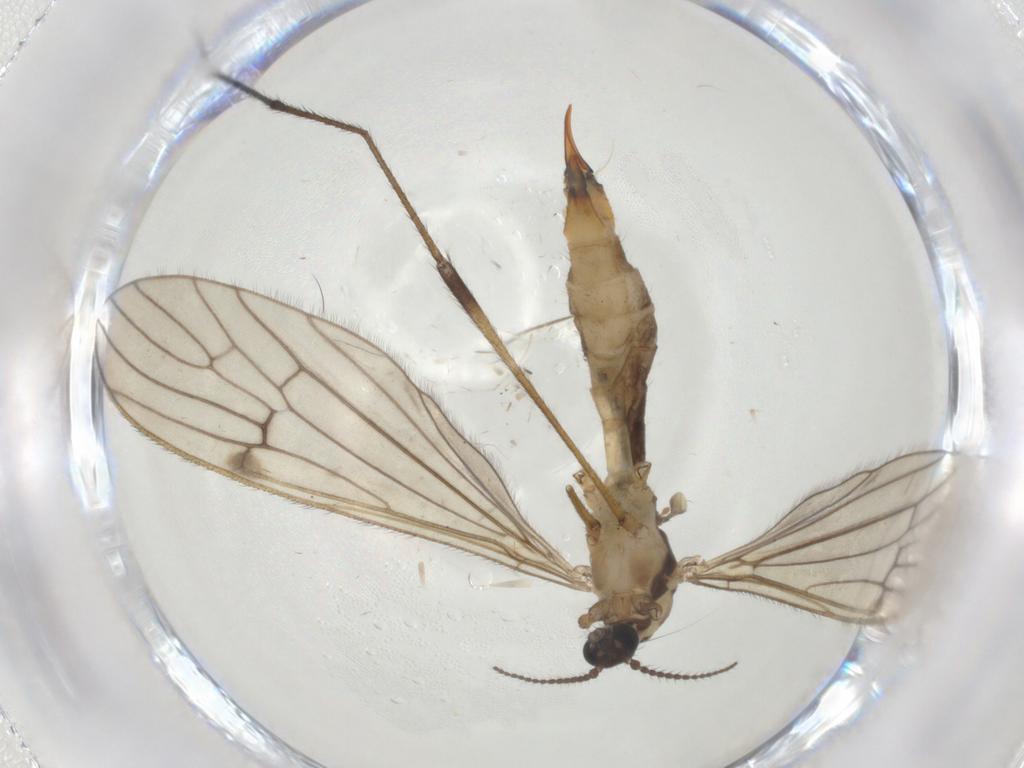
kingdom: Animalia
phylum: Arthropoda
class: Insecta
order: Diptera
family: Limoniidae
